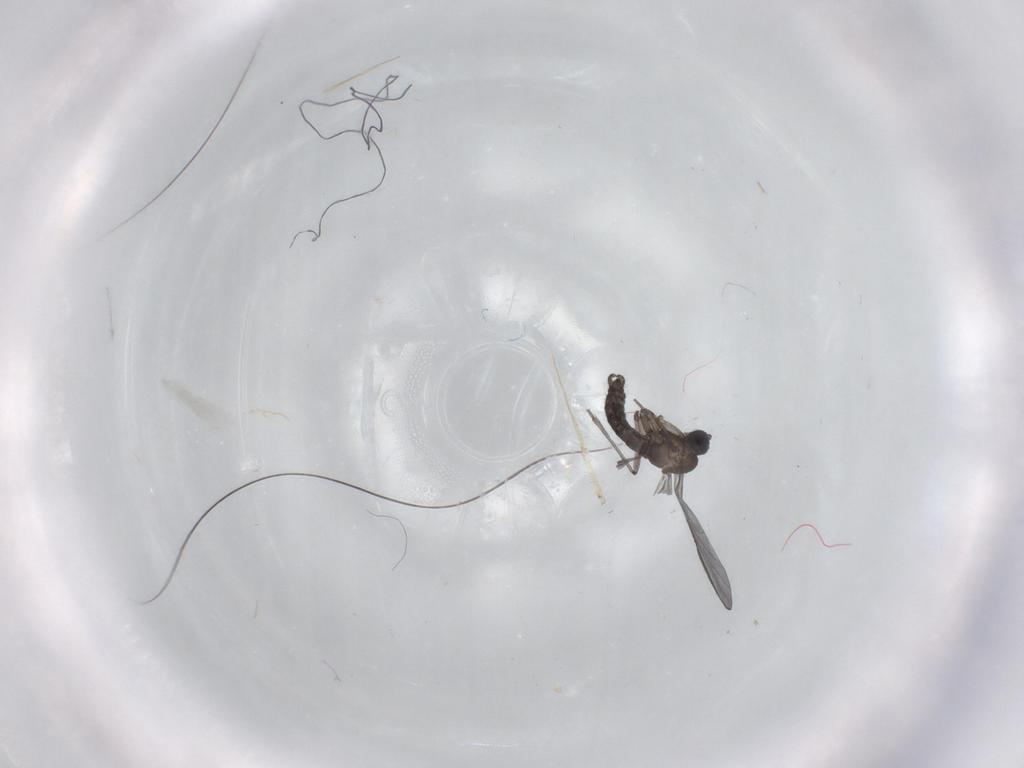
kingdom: Animalia
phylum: Arthropoda
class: Insecta
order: Diptera
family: Sciaridae
